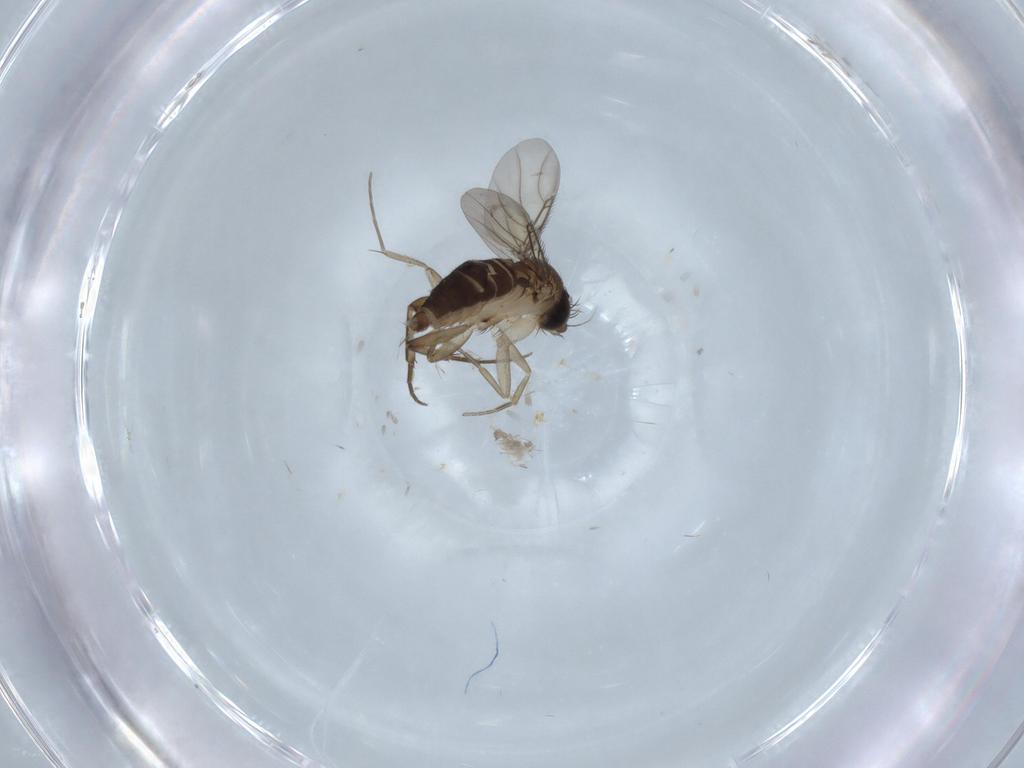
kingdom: Animalia
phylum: Arthropoda
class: Insecta
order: Diptera
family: Phoridae
